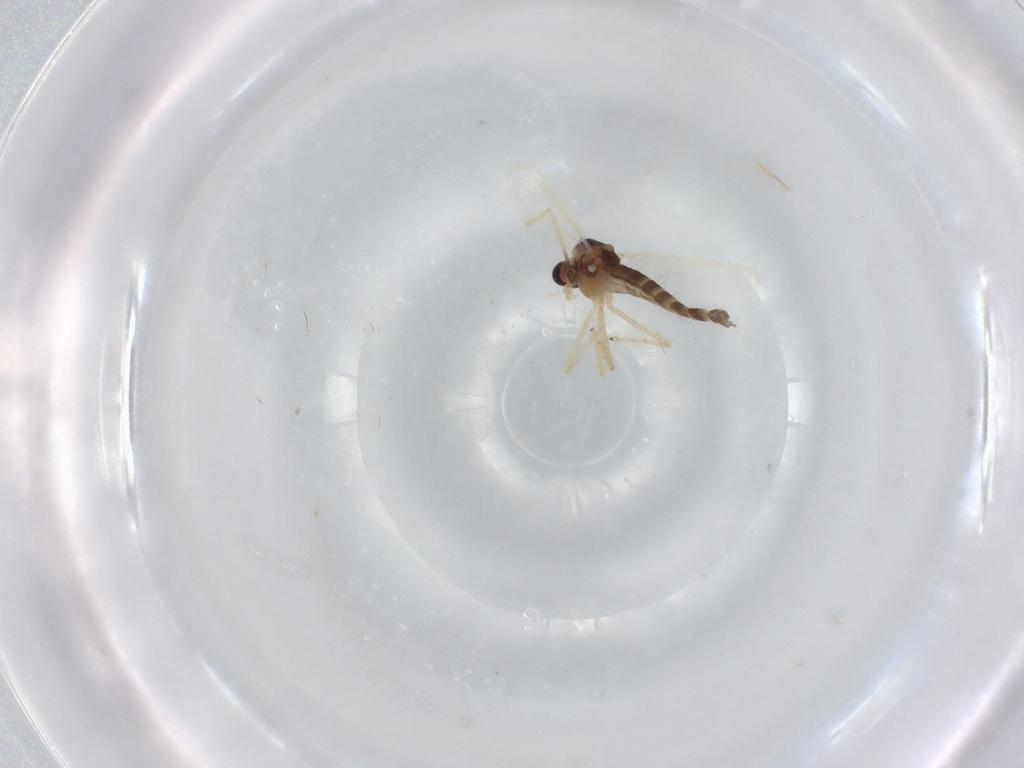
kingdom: Animalia
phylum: Arthropoda
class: Insecta
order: Diptera
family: Chironomidae
